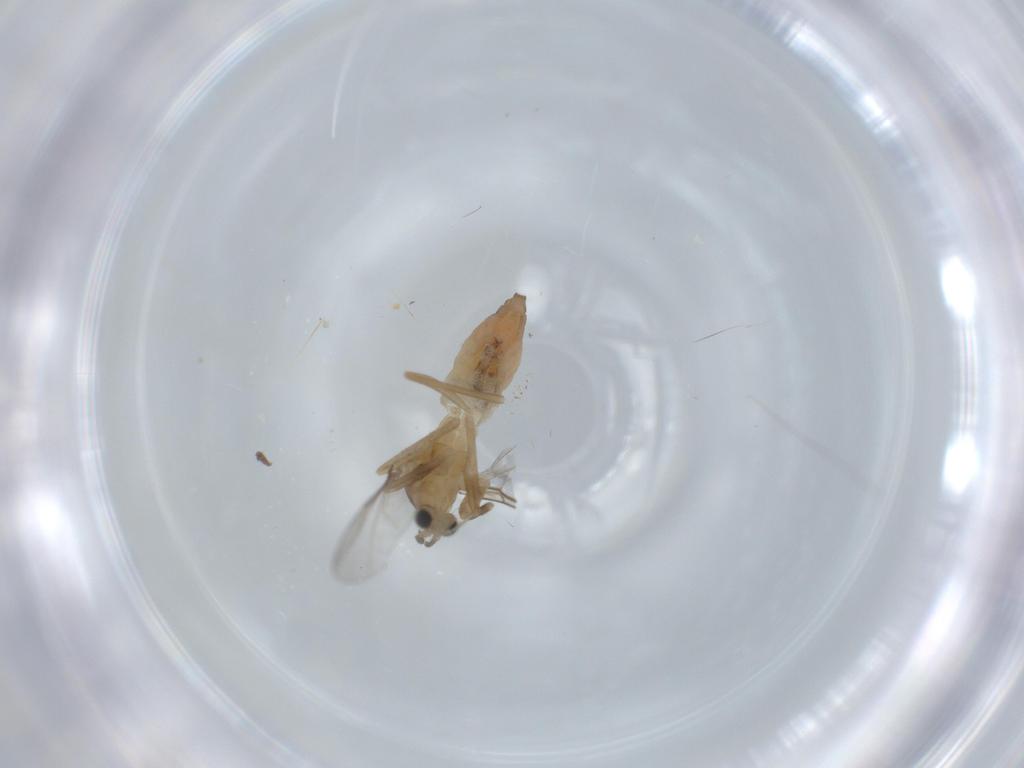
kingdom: Animalia
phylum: Arthropoda
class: Insecta
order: Diptera
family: Cecidomyiidae
